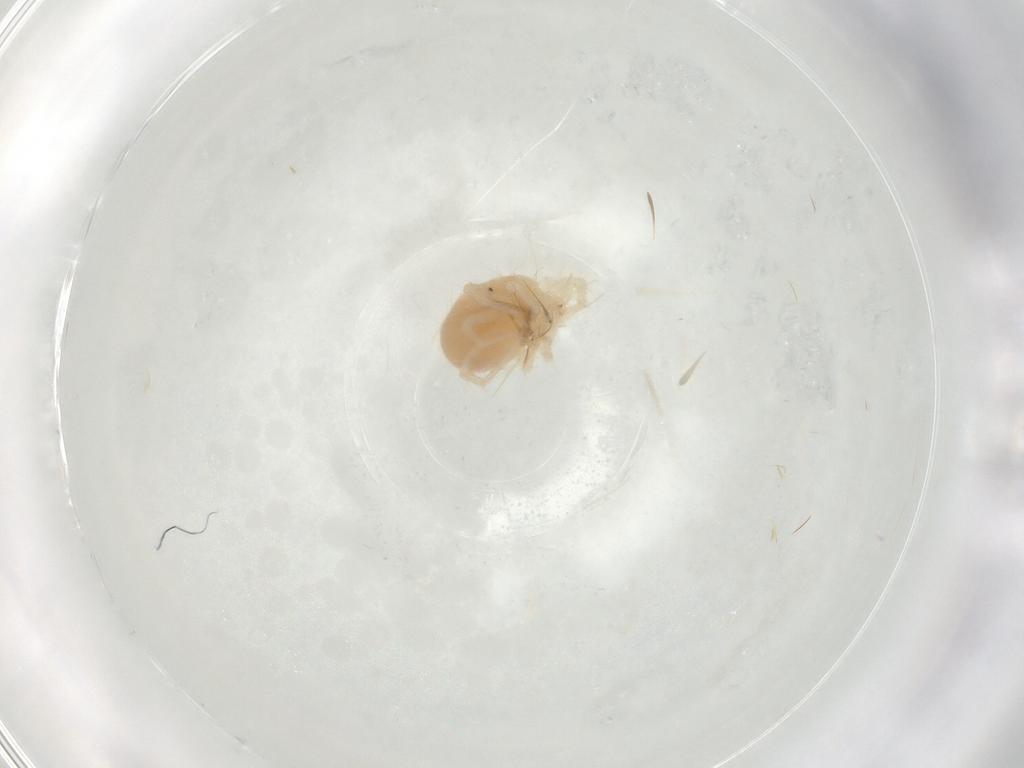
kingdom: Animalia
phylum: Arthropoda
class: Arachnida
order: Trombidiformes
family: Anystidae
